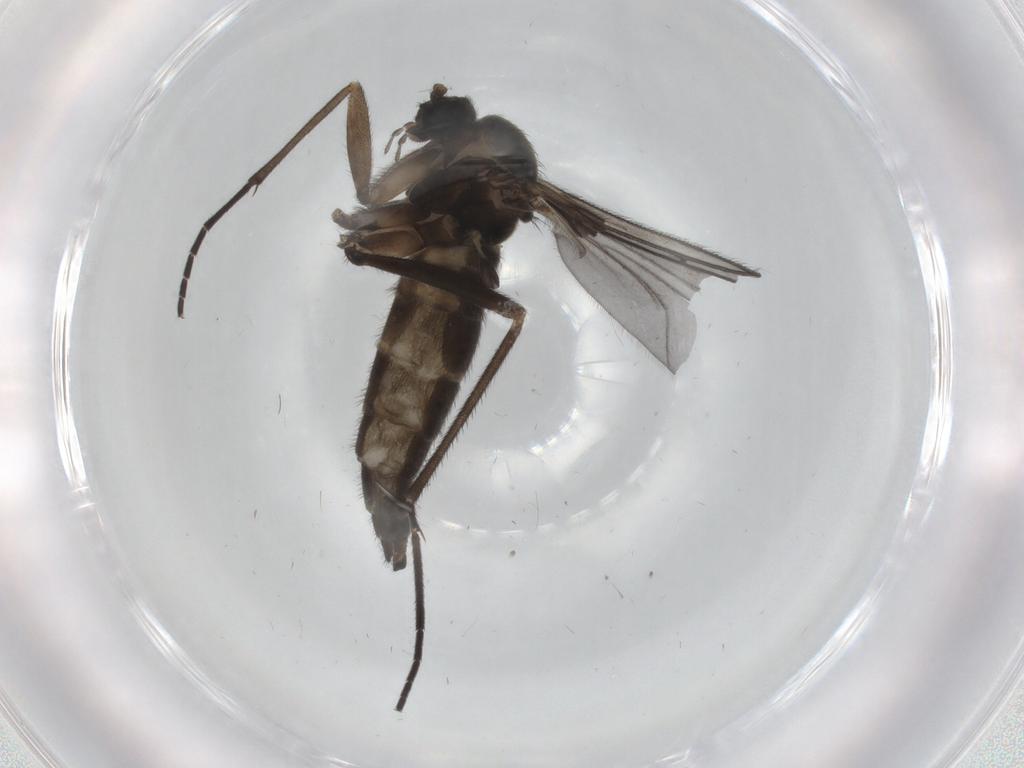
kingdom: Animalia
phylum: Arthropoda
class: Insecta
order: Diptera
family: Sciaridae
